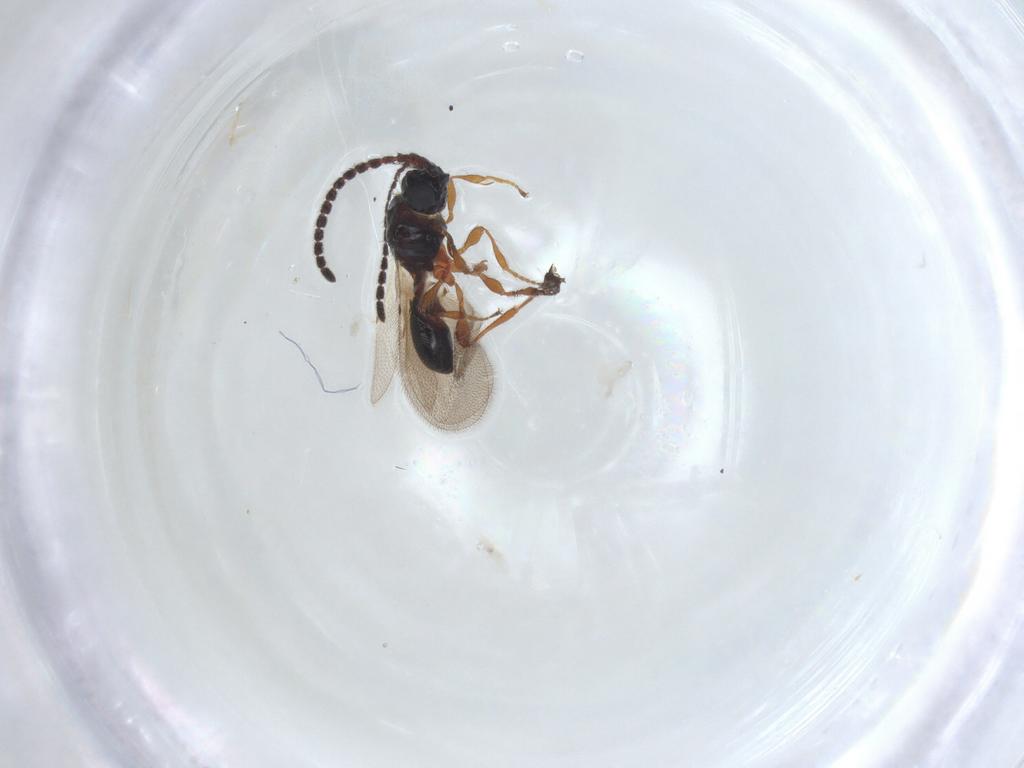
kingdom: Animalia
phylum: Arthropoda
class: Insecta
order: Hymenoptera
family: Diapriidae
